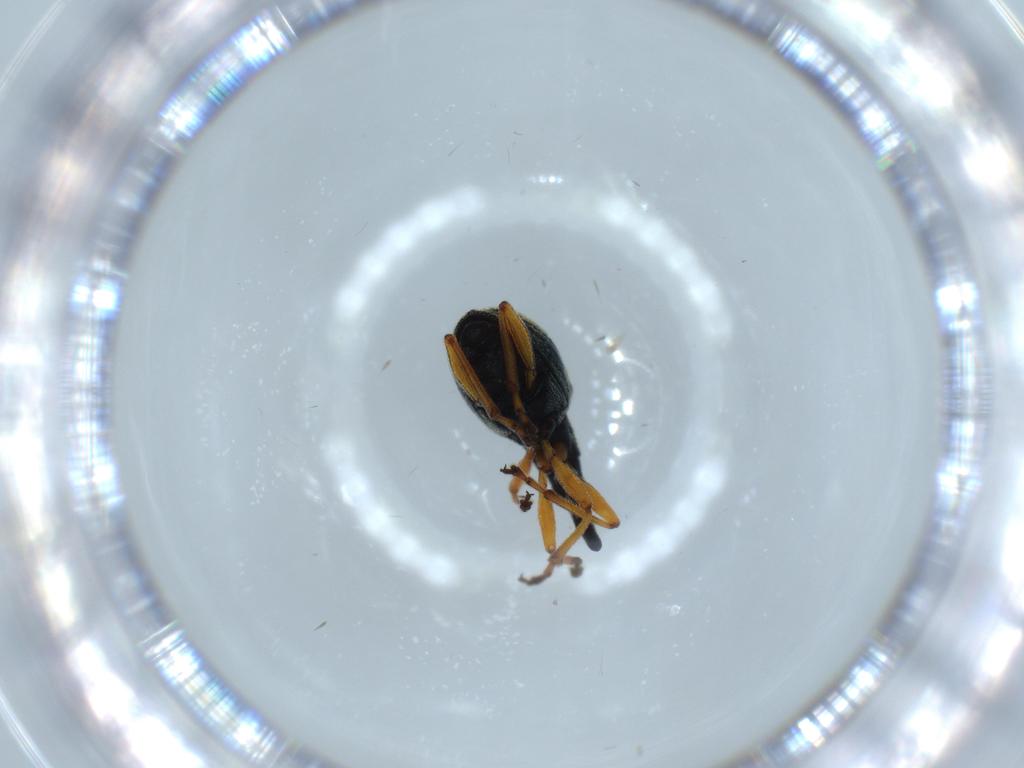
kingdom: Animalia
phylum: Arthropoda
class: Insecta
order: Coleoptera
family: Brentidae
